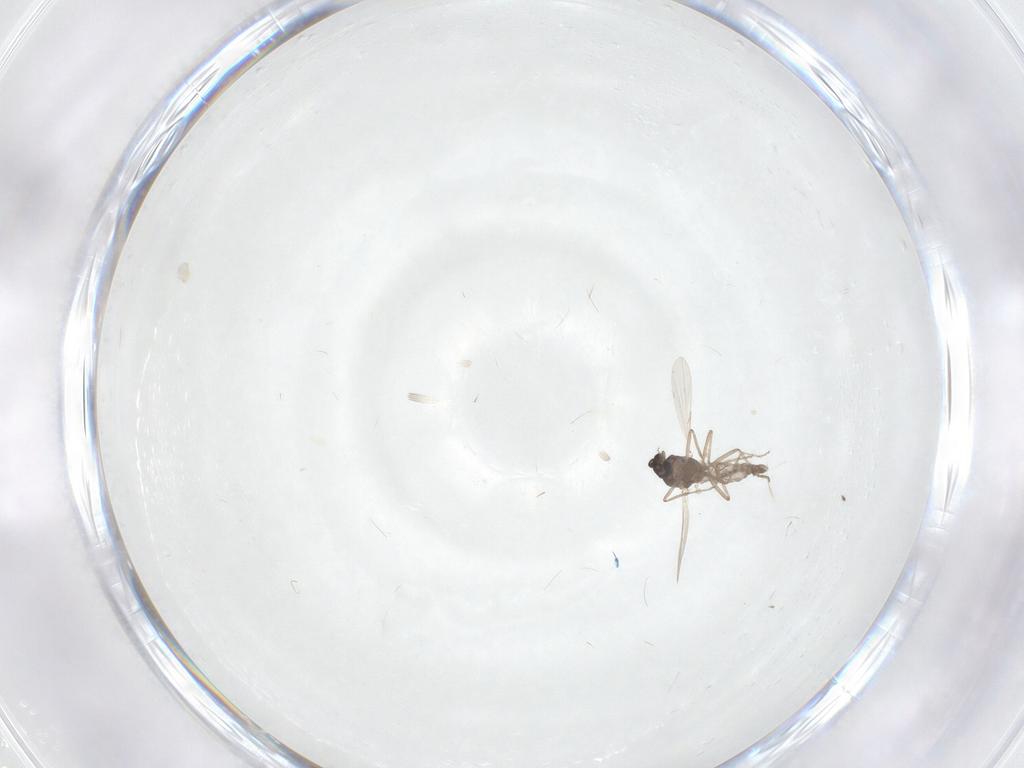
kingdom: Animalia
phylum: Arthropoda
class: Insecta
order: Diptera
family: Ceratopogonidae
